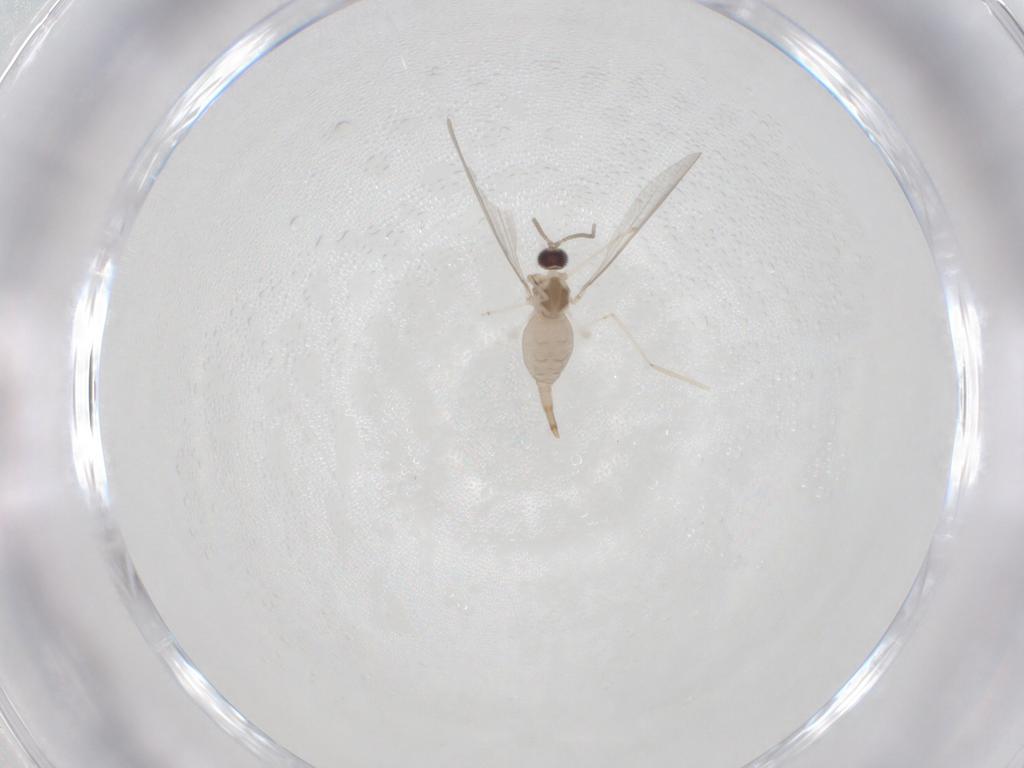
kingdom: Animalia
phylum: Arthropoda
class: Insecta
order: Diptera
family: Cecidomyiidae
